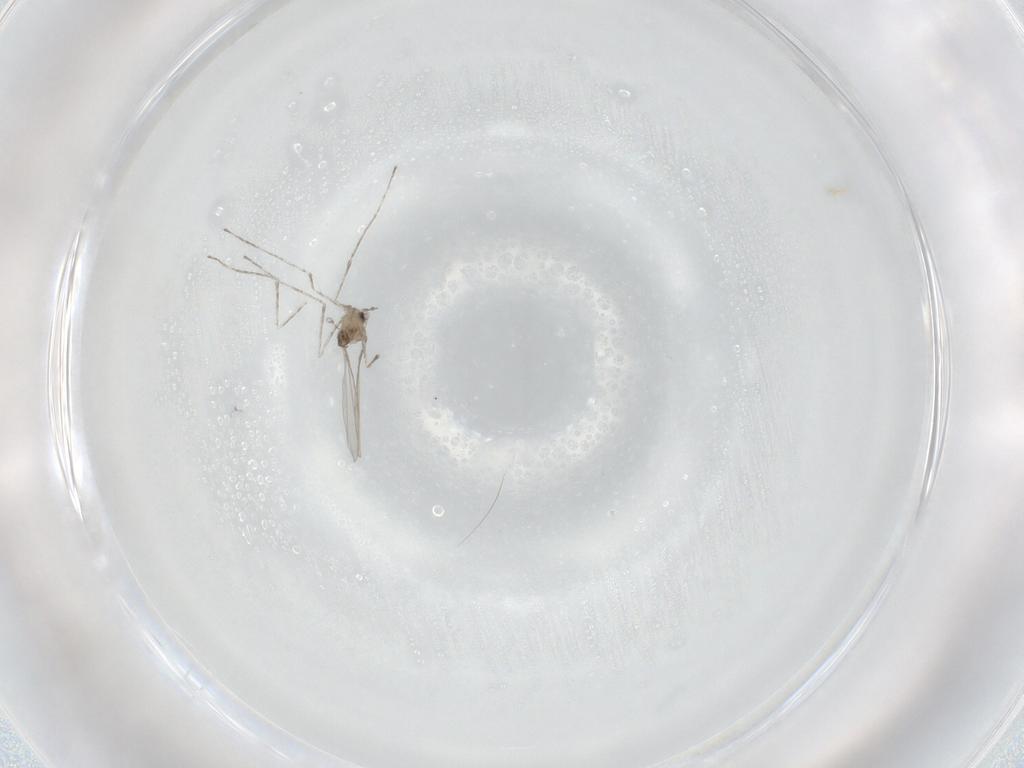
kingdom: Animalia
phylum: Arthropoda
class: Insecta
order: Diptera
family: Cecidomyiidae
